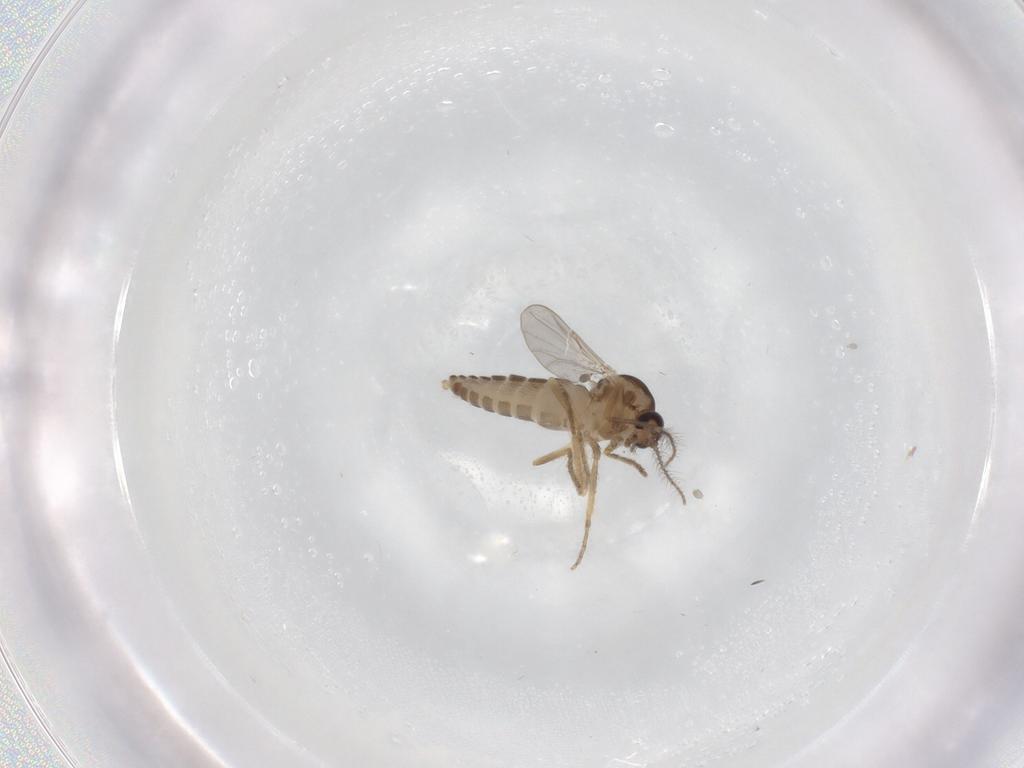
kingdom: Animalia
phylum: Arthropoda
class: Insecta
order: Diptera
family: Ceratopogonidae
